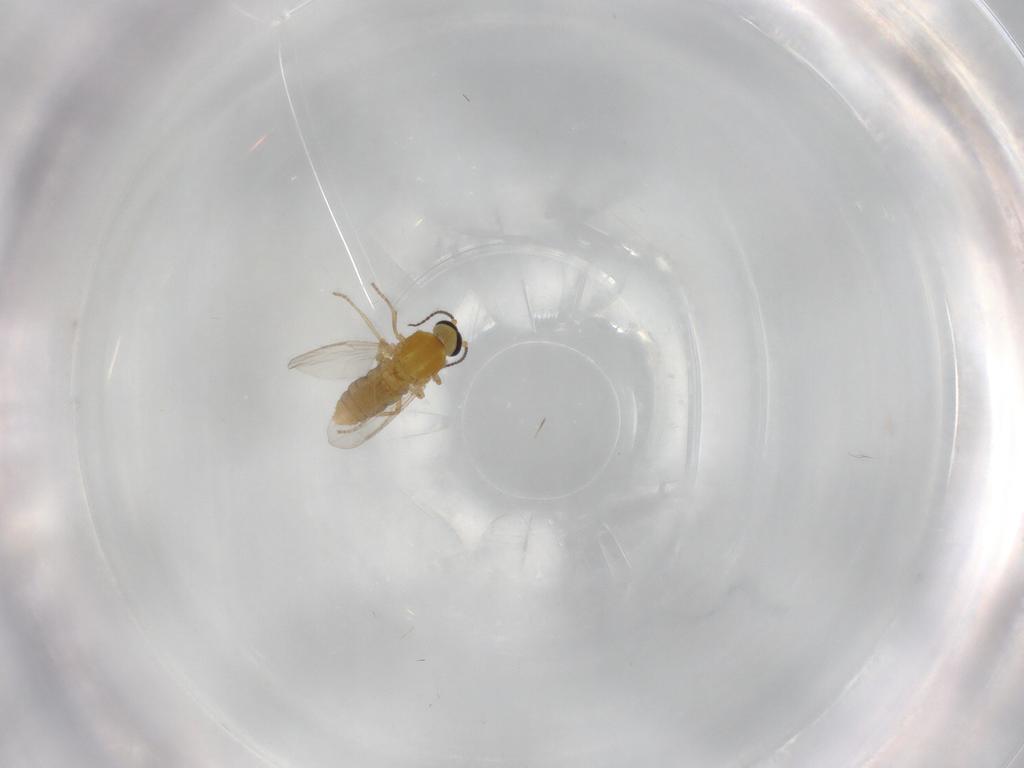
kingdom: Animalia
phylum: Arthropoda
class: Insecta
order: Diptera
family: Ceratopogonidae
